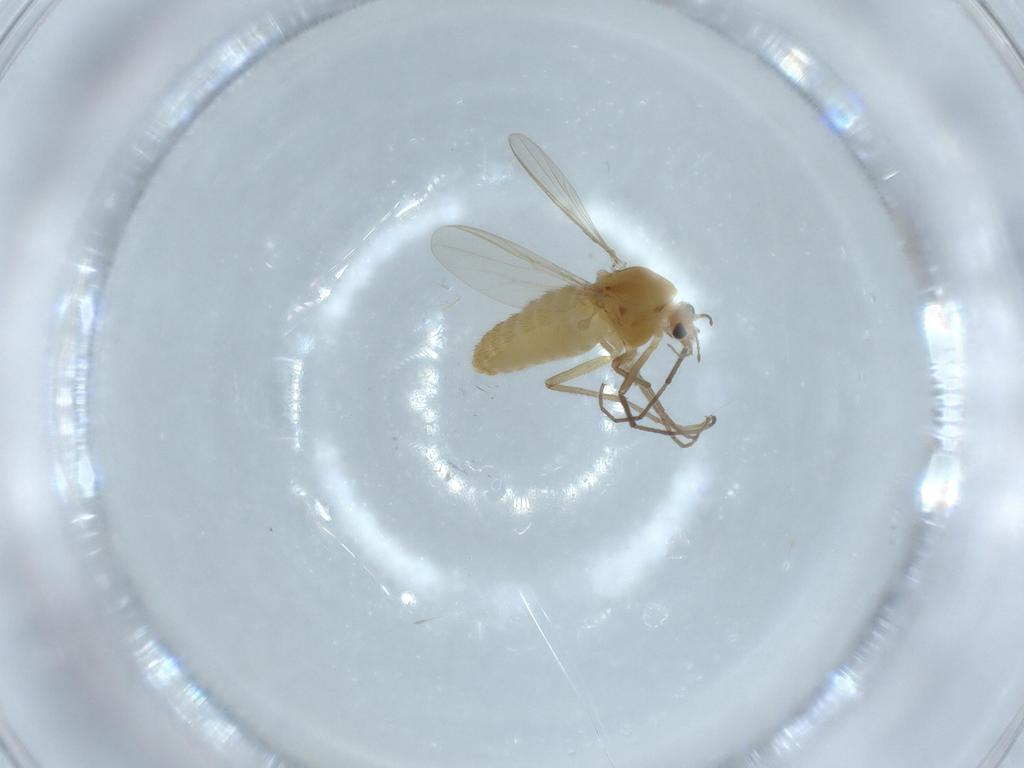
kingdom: Animalia
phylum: Arthropoda
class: Insecta
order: Diptera
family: Chironomidae
